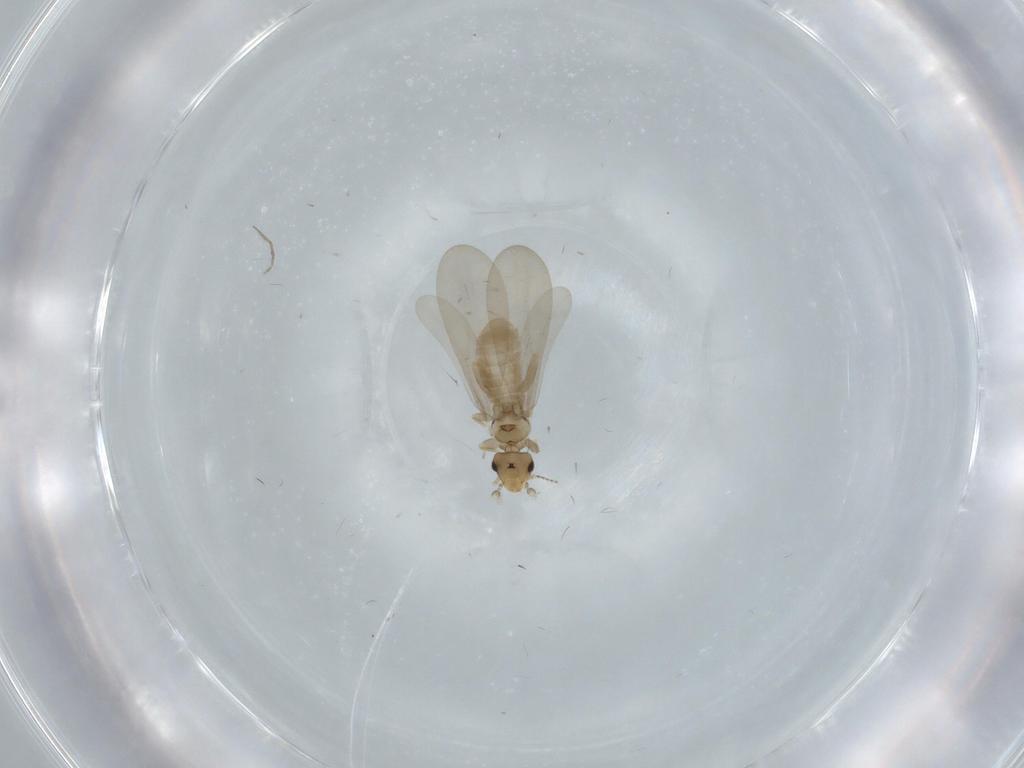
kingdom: Animalia
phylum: Arthropoda
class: Insecta
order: Psocodea
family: Liposcelididae
